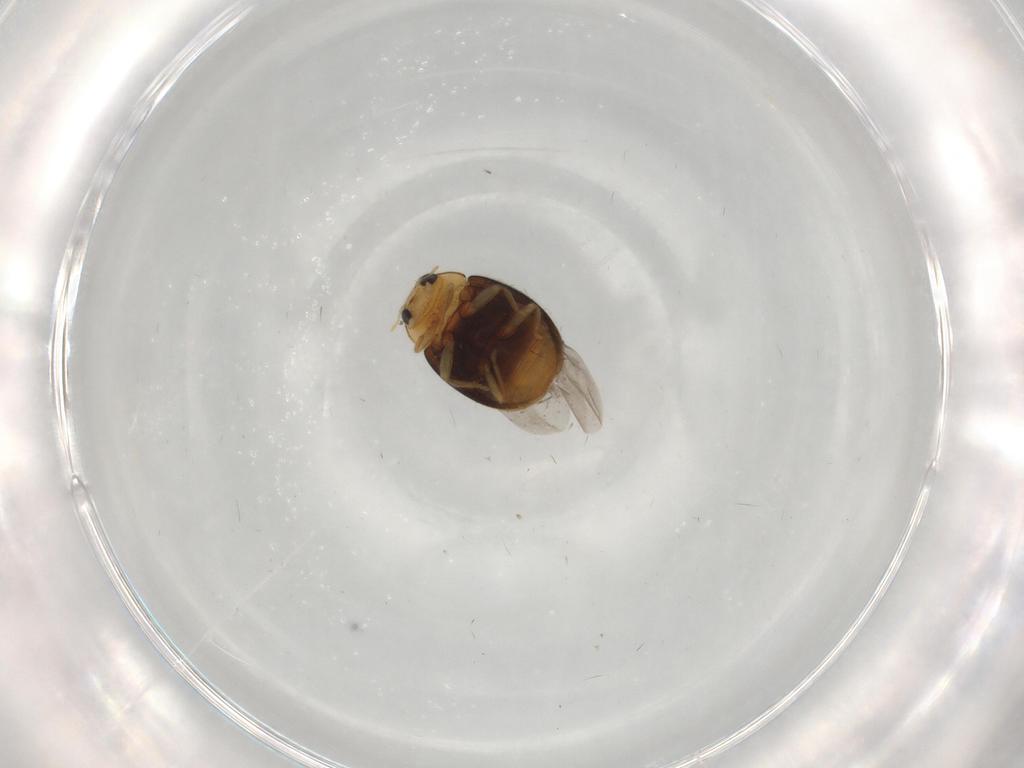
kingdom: Animalia
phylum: Arthropoda
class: Insecta
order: Coleoptera
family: Coccinellidae
